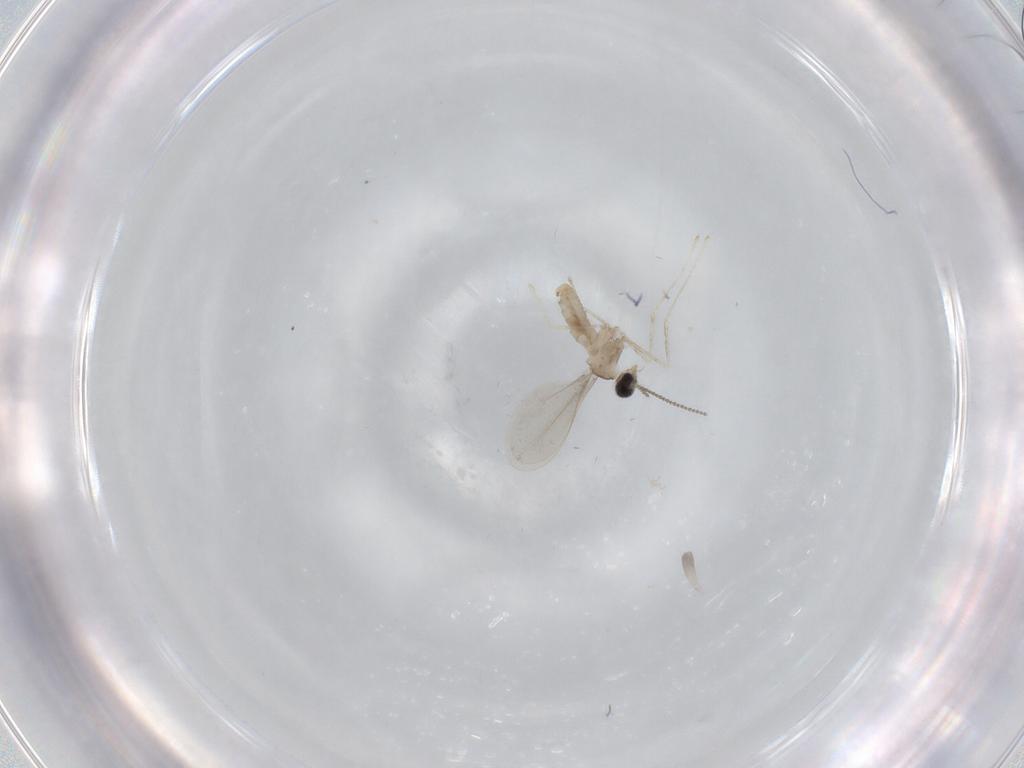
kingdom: Animalia
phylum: Arthropoda
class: Insecta
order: Diptera
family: Cecidomyiidae
